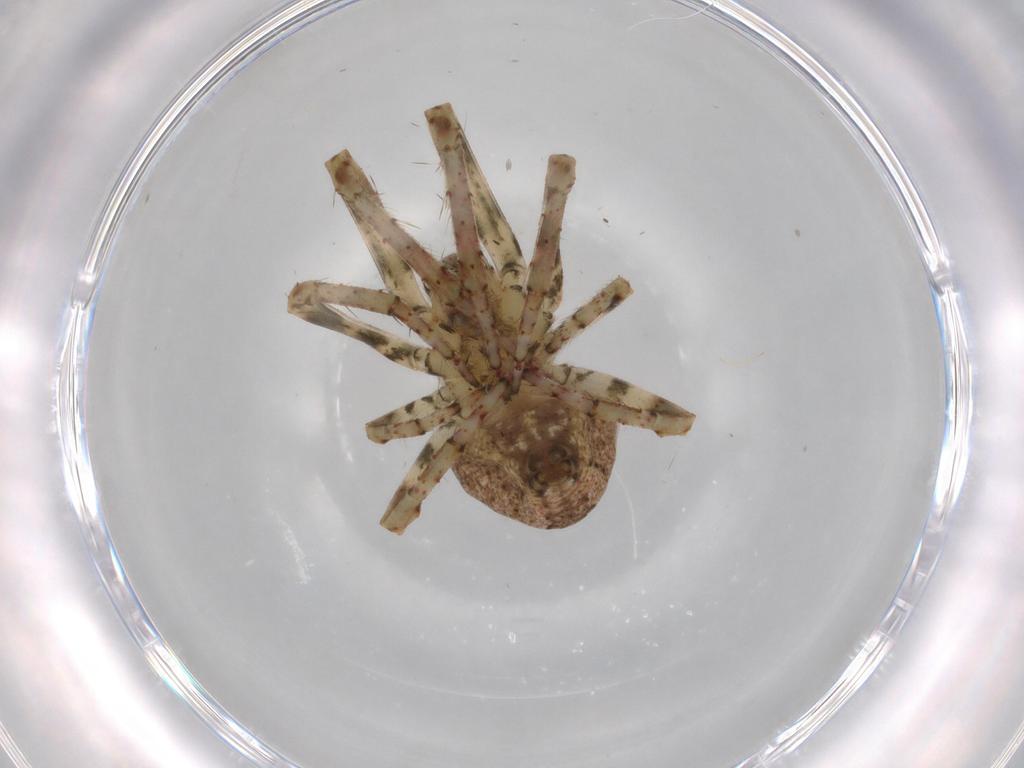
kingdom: Animalia
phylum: Arthropoda
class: Arachnida
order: Araneae
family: Araneidae
